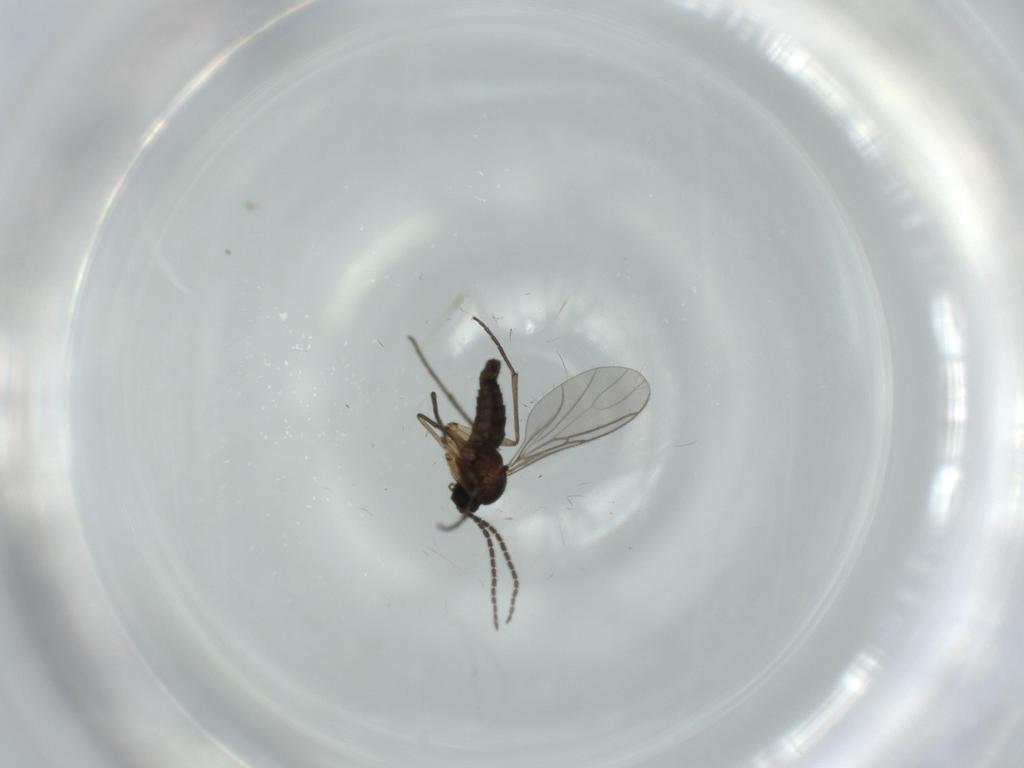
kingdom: Animalia
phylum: Arthropoda
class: Insecta
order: Diptera
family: Sciaridae
